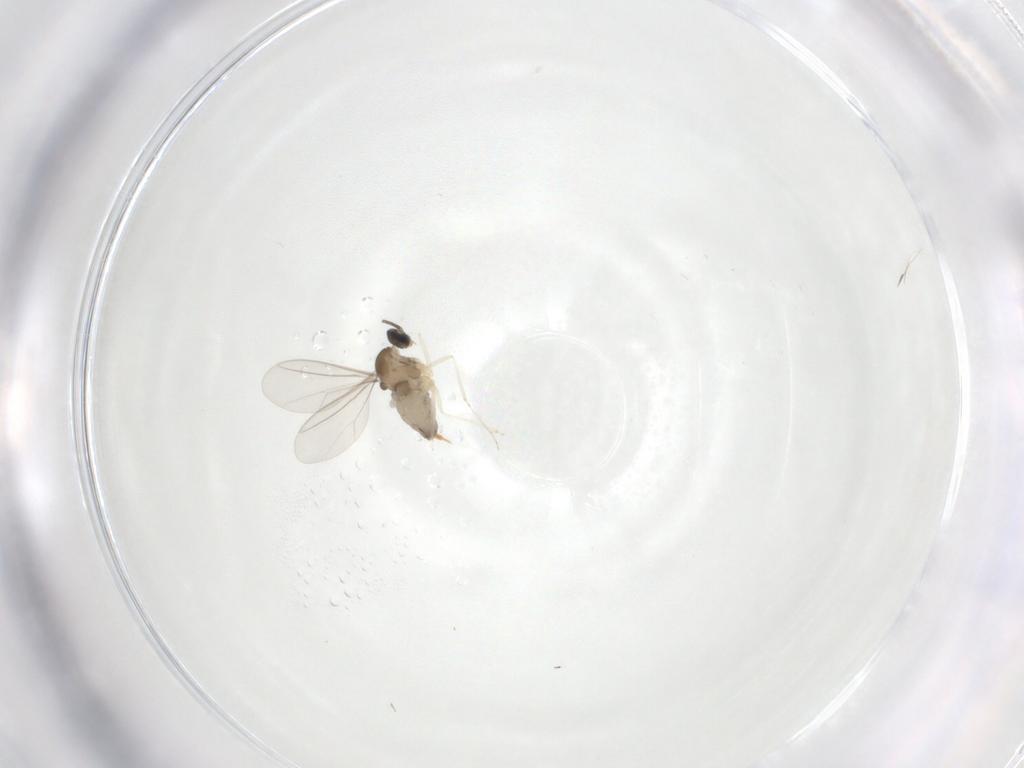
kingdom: Animalia
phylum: Arthropoda
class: Insecta
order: Diptera
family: Cecidomyiidae
